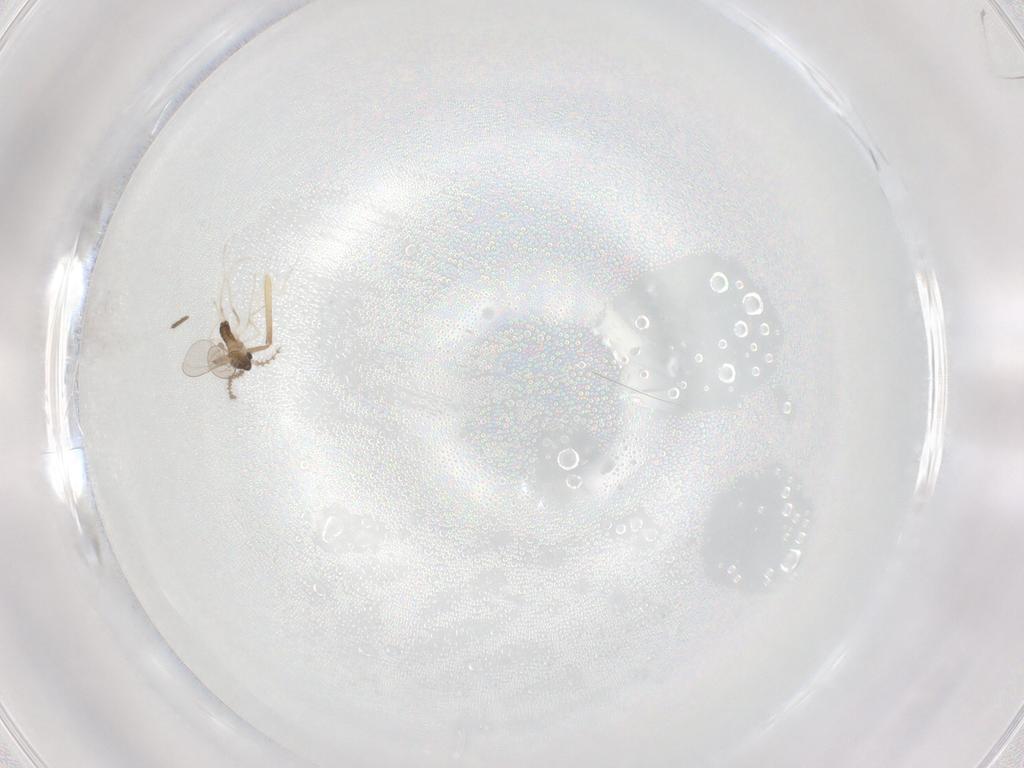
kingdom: Animalia
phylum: Arthropoda
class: Insecta
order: Diptera
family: Cecidomyiidae
